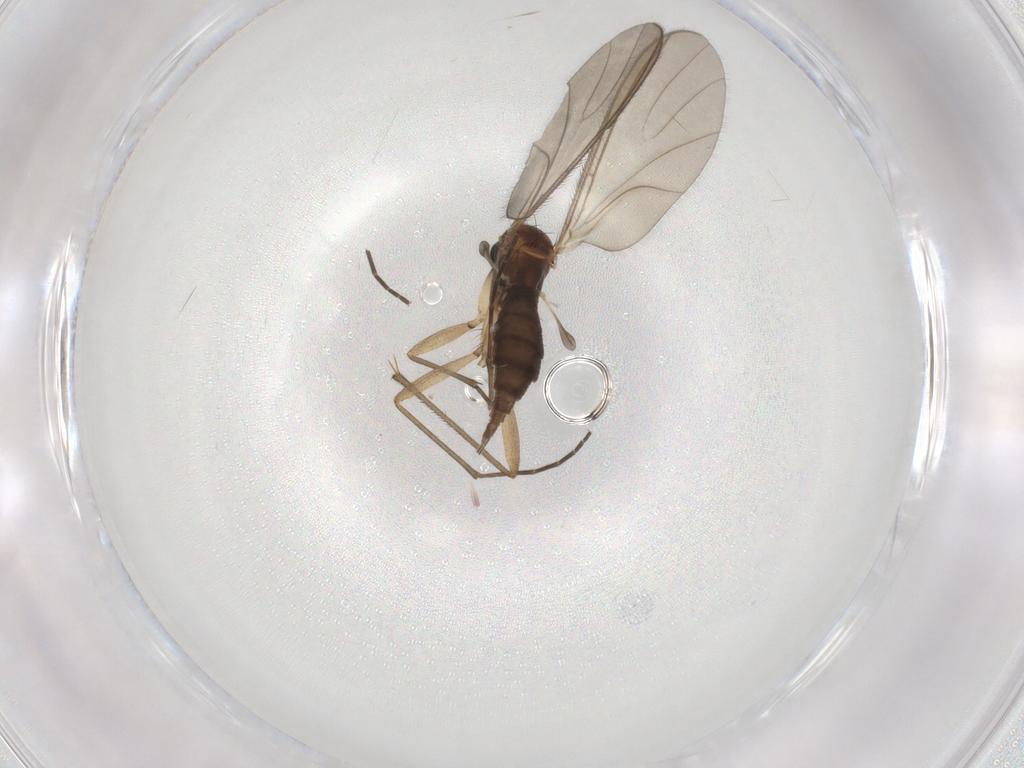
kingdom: Animalia
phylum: Arthropoda
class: Insecta
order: Diptera
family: Sciaridae
